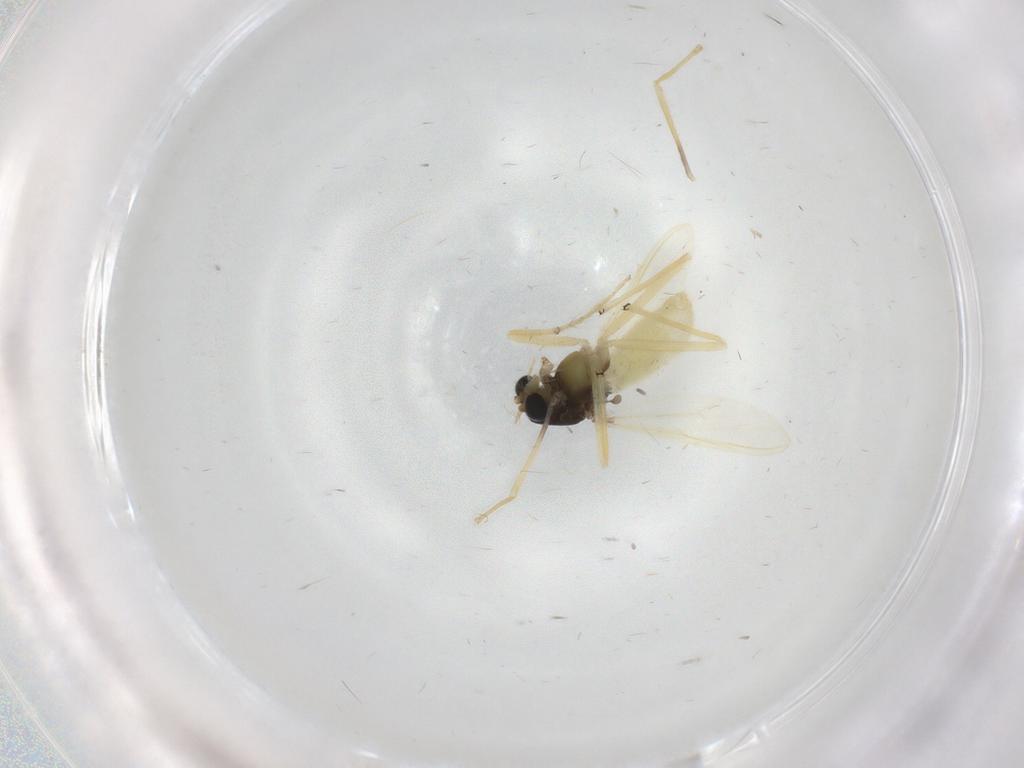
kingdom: Animalia
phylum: Arthropoda
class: Insecta
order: Diptera
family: Chironomidae
